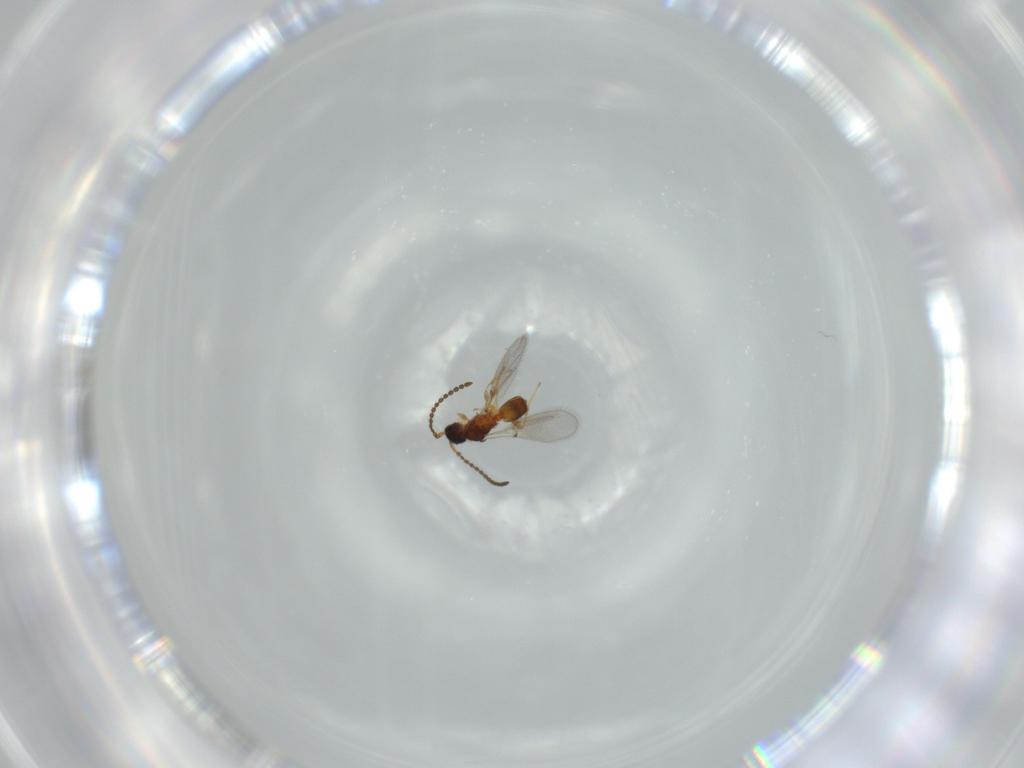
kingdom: Animalia
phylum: Arthropoda
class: Insecta
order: Hymenoptera
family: Diapriidae
